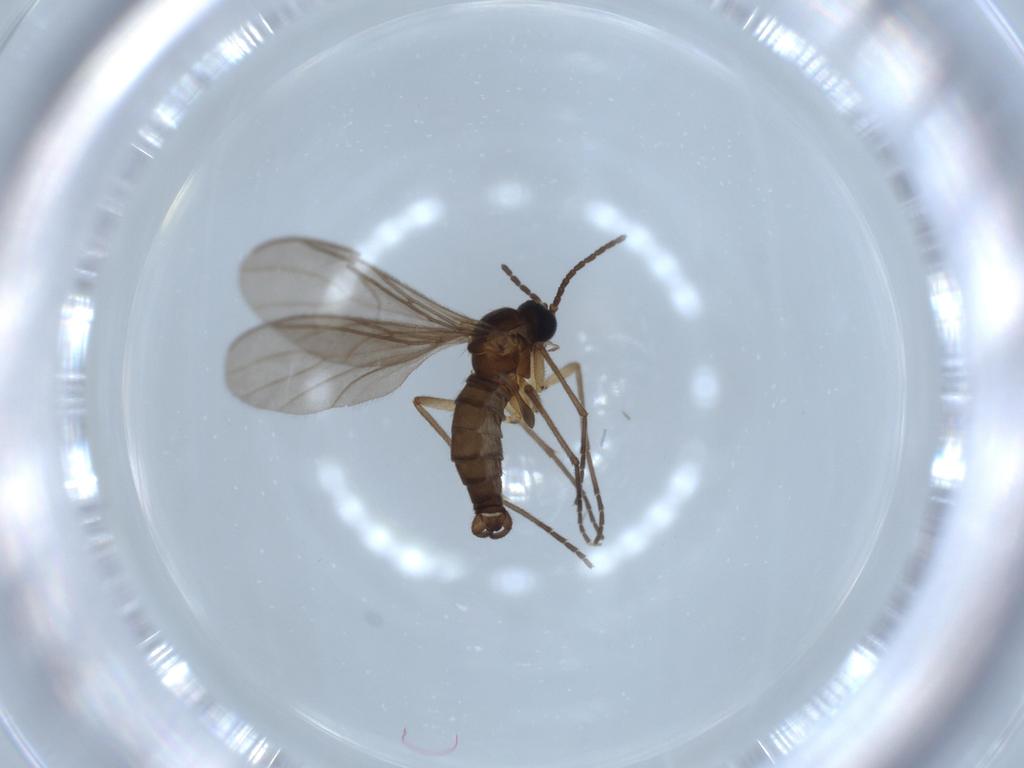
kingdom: Animalia
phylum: Arthropoda
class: Insecta
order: Diptera
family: Sciaridae
